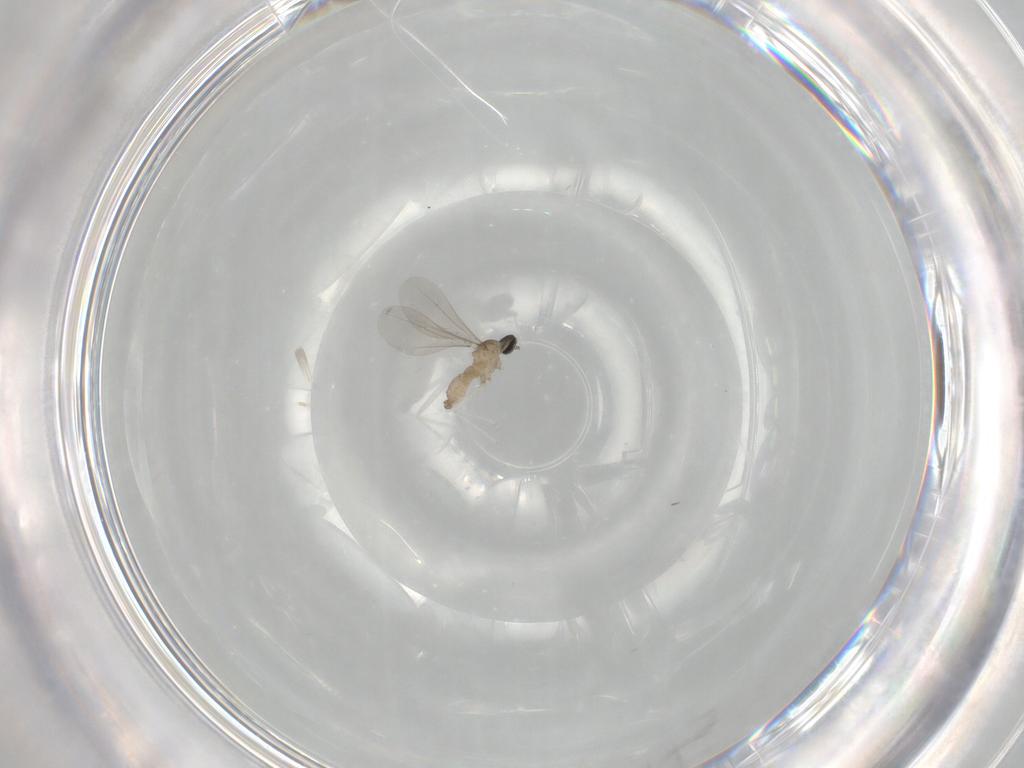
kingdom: Animalia
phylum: Arthropoda
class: Insecta
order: Diptera
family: Cecidomyiidae
